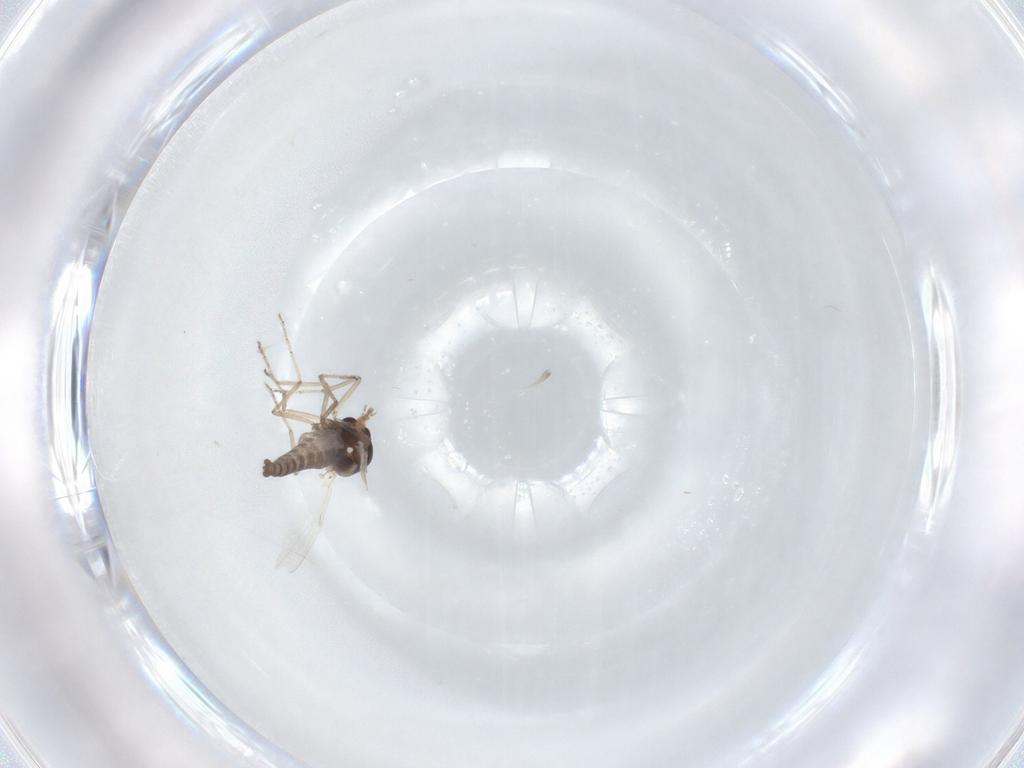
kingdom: Animalia
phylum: Arthropoda
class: Insecta
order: Diptera
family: Ceratopogonidae
